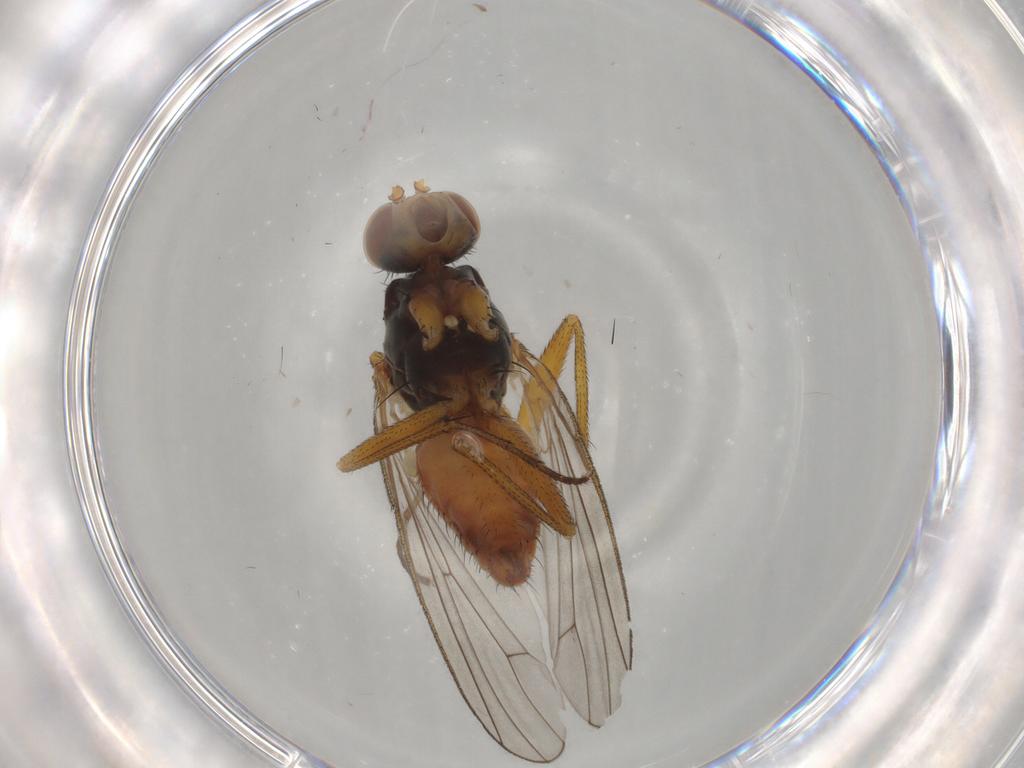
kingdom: Animalia
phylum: Arthropoda
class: Insecta
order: Diptera
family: Heleomyzidae
